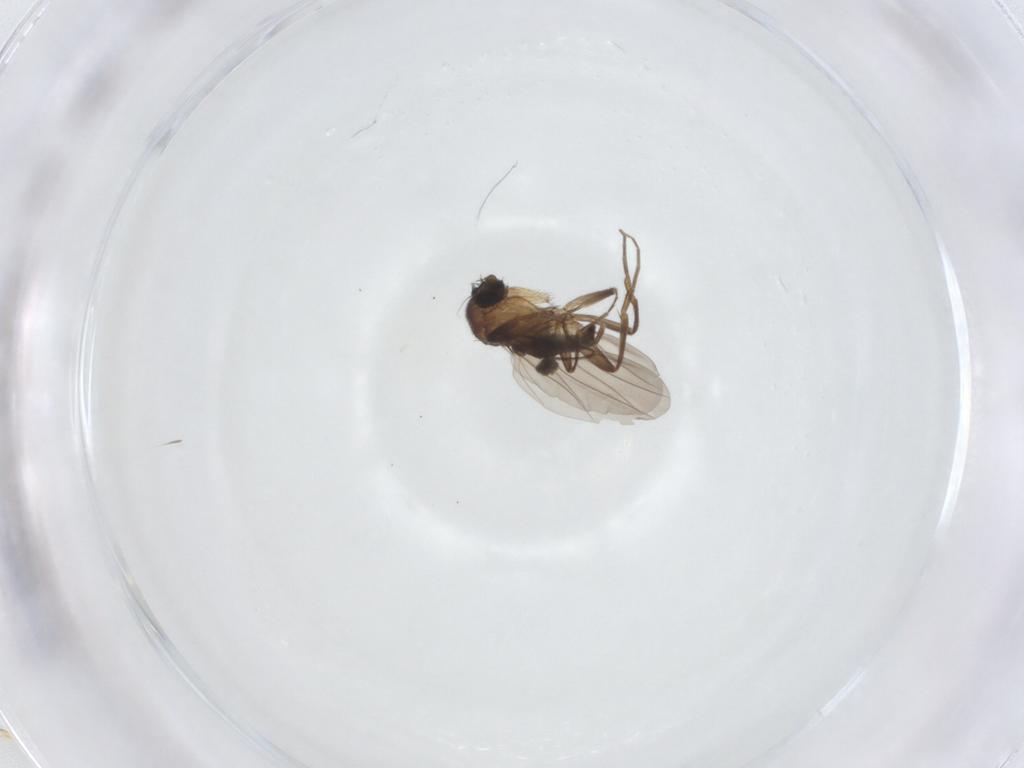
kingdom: Animalia
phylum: Arthropoda
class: Insecta
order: Diptera
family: Phoridae
